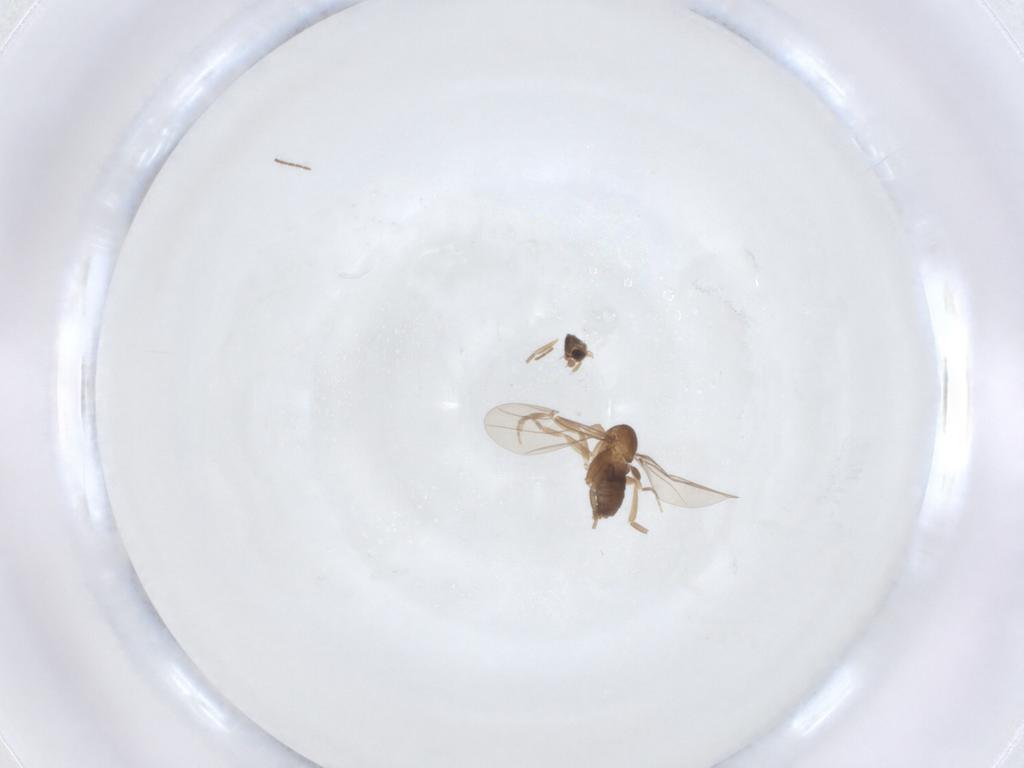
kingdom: Animalia
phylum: Arthropoda
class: Insecta
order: Diptera
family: Phoridae
